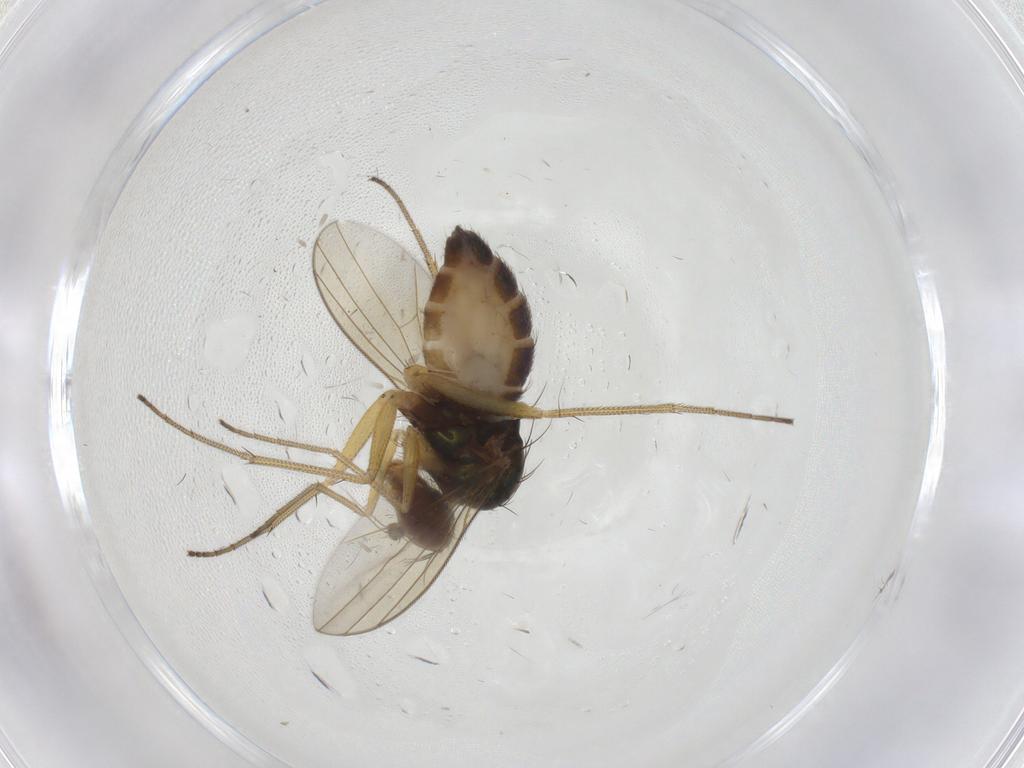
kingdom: Animalia
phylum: Arthropoda
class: Insecta
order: Diptera
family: Dolichopodidae
